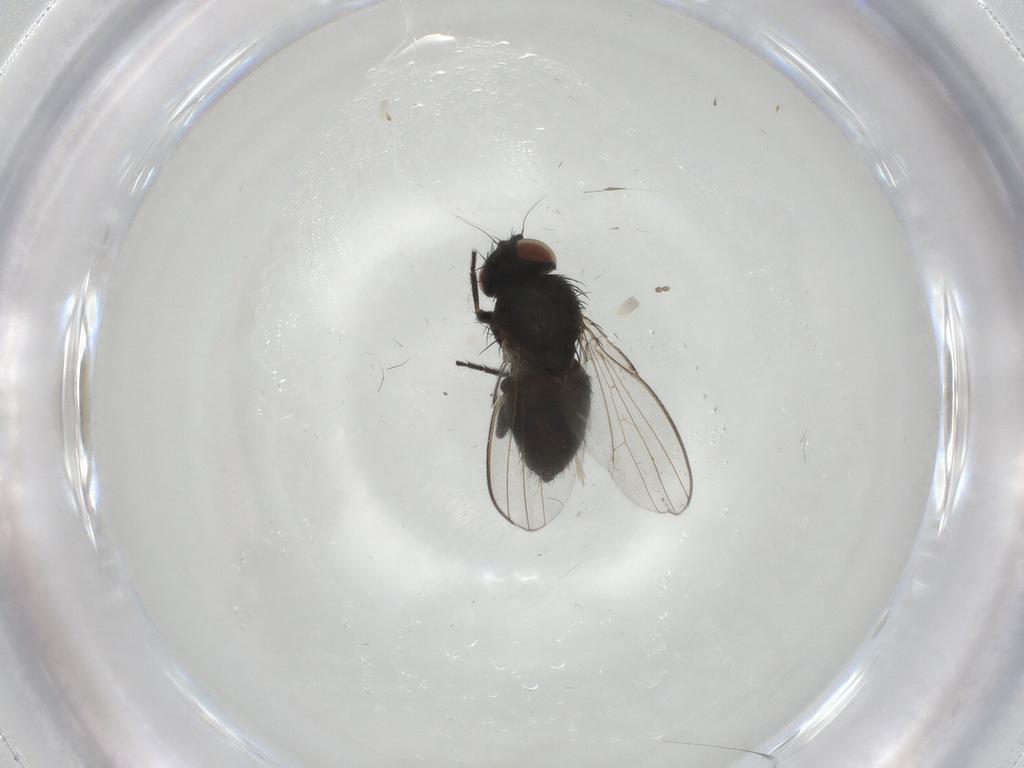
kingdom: Animalia
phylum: Arthropoda
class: Insecta
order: Diptera
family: Milichiidae
